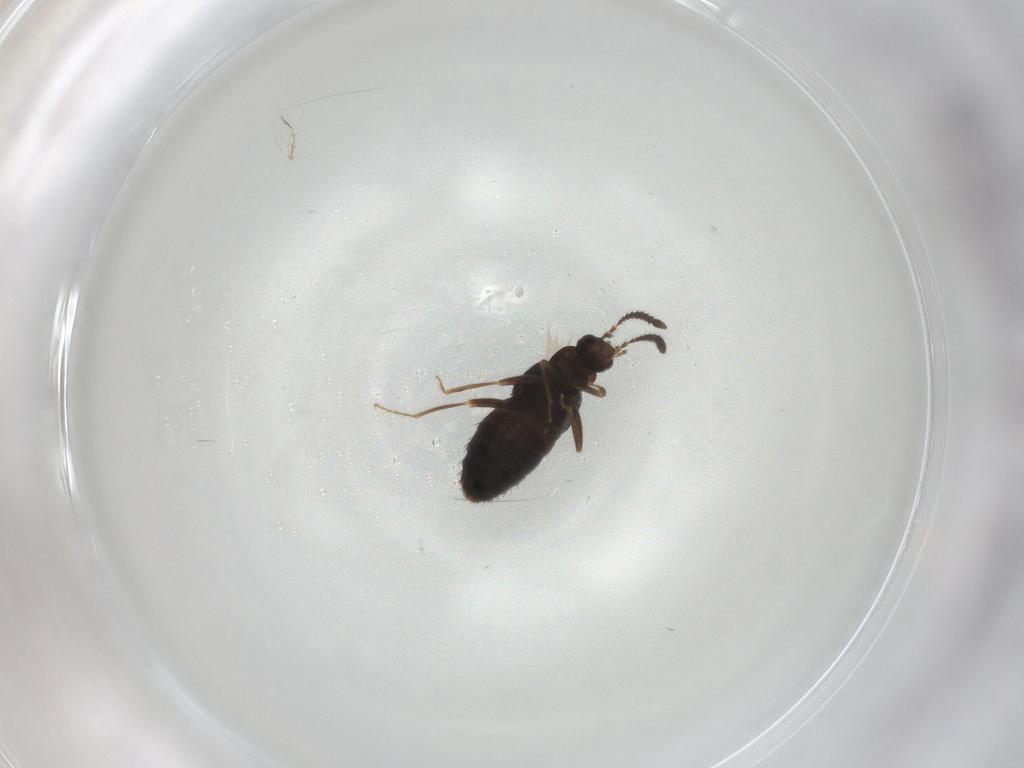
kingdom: Animalia
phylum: Arthropoda
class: Insecta
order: Coleoptera
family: Staphylinidae
